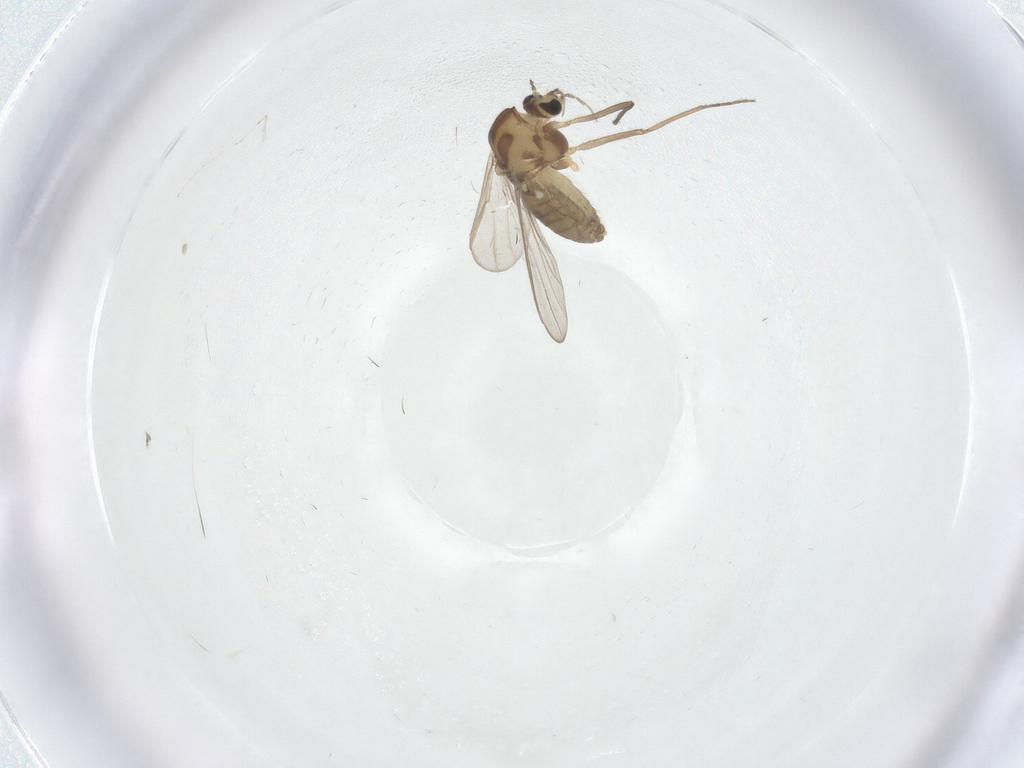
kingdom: Animalia
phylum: Arthropoda
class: Insecta
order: Diptera
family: Chironomidae
